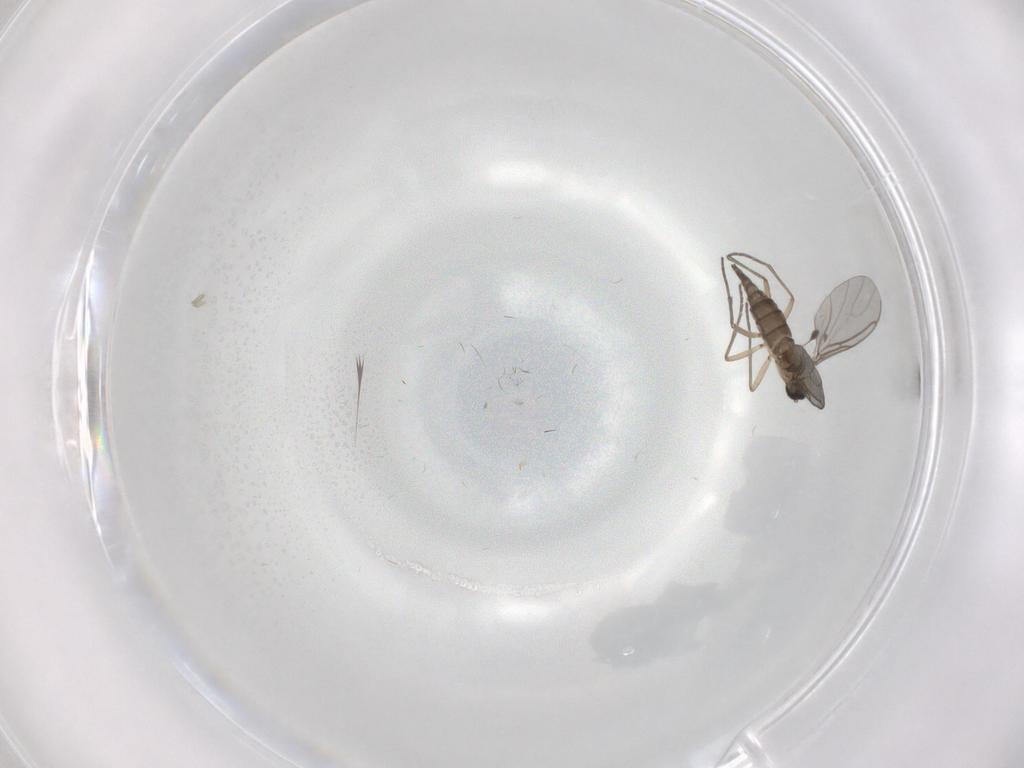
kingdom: Animalia
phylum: Arthropoda
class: Insecta
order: Diptera
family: Sciaridae
